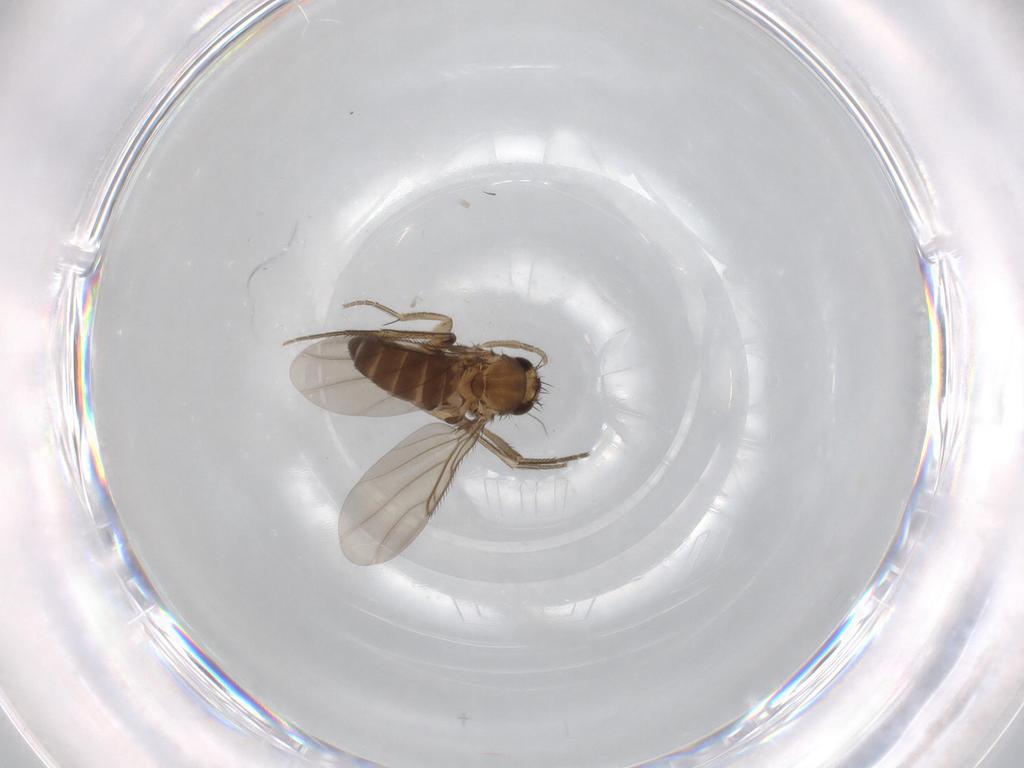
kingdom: Animalia
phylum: Arthropoda
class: Insecta
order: Diptera
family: Phoridae
